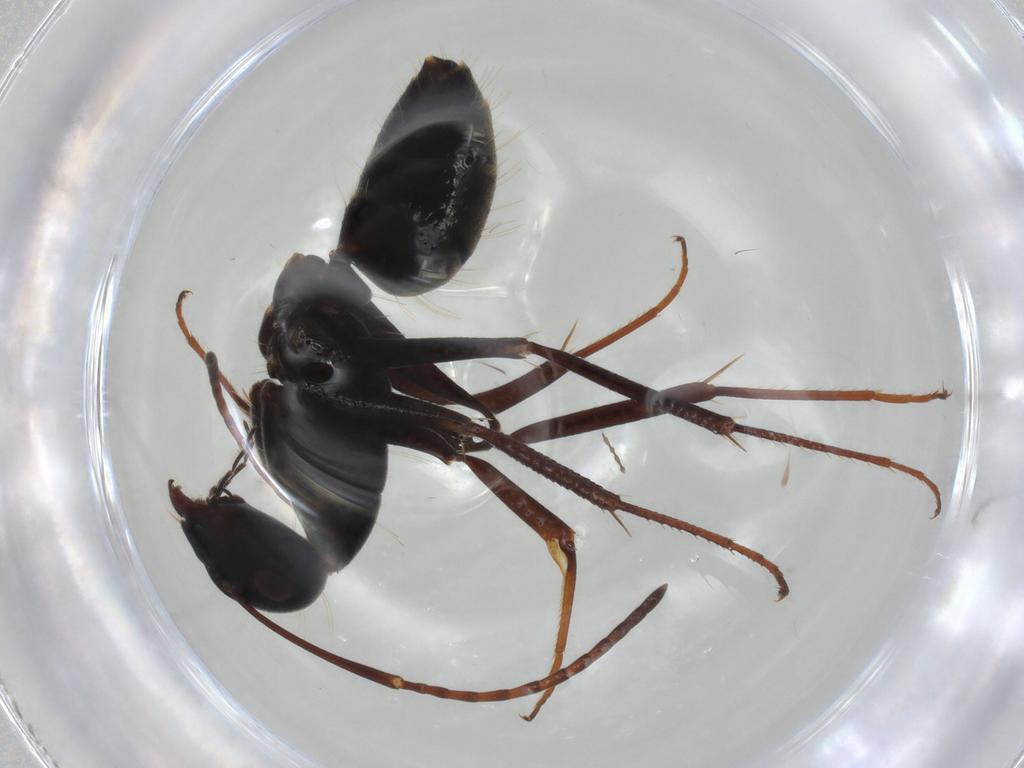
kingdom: Animalia
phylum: Arthropoda
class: Insecta
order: Hymenoptera
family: Formicidae
